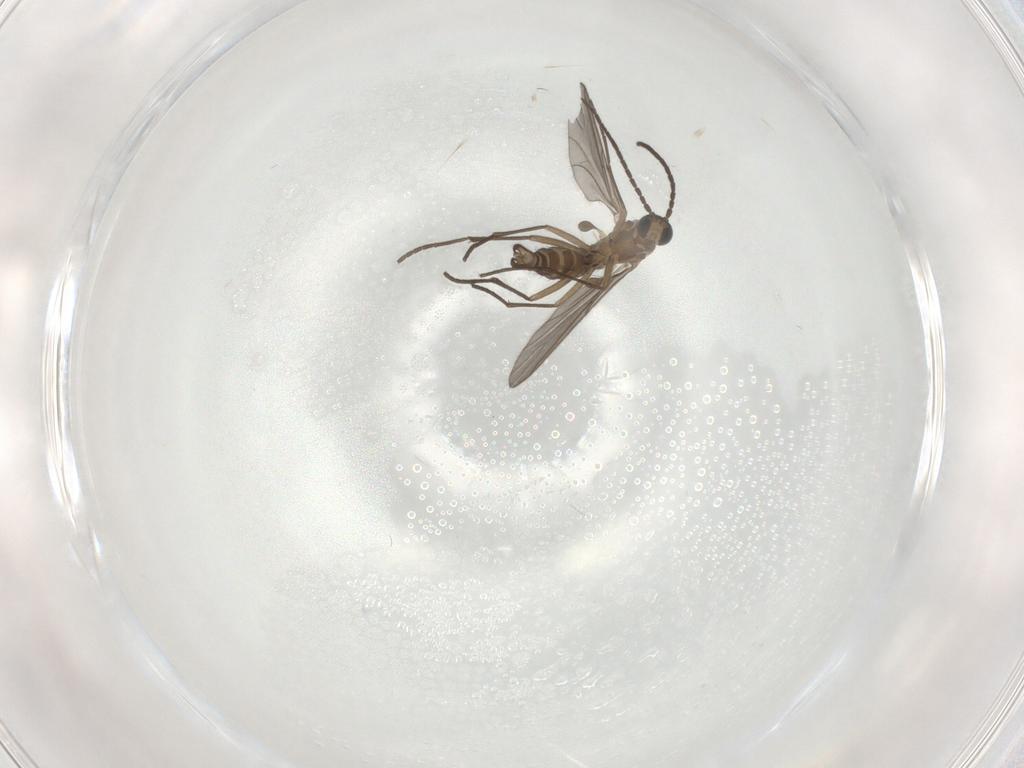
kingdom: Animalia
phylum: Arthropoda
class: Insecta
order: Diptera
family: Sciaridae
